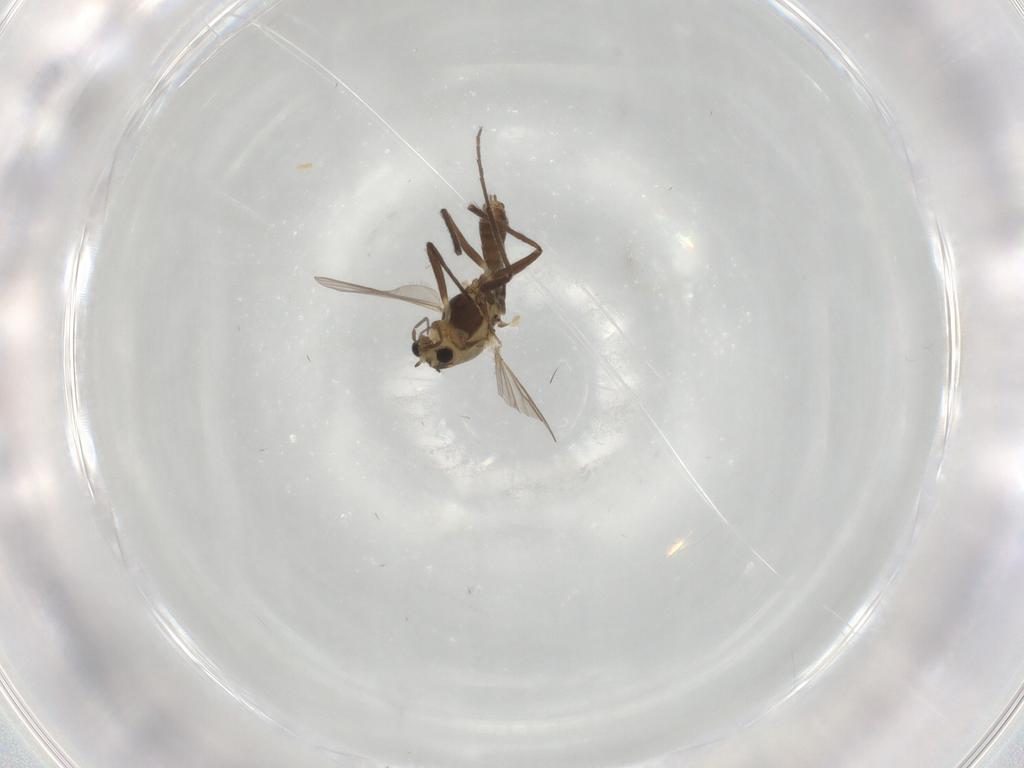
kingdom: Animalia
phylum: Arthropoda
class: Insecta
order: Diptera
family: Chironomidae
